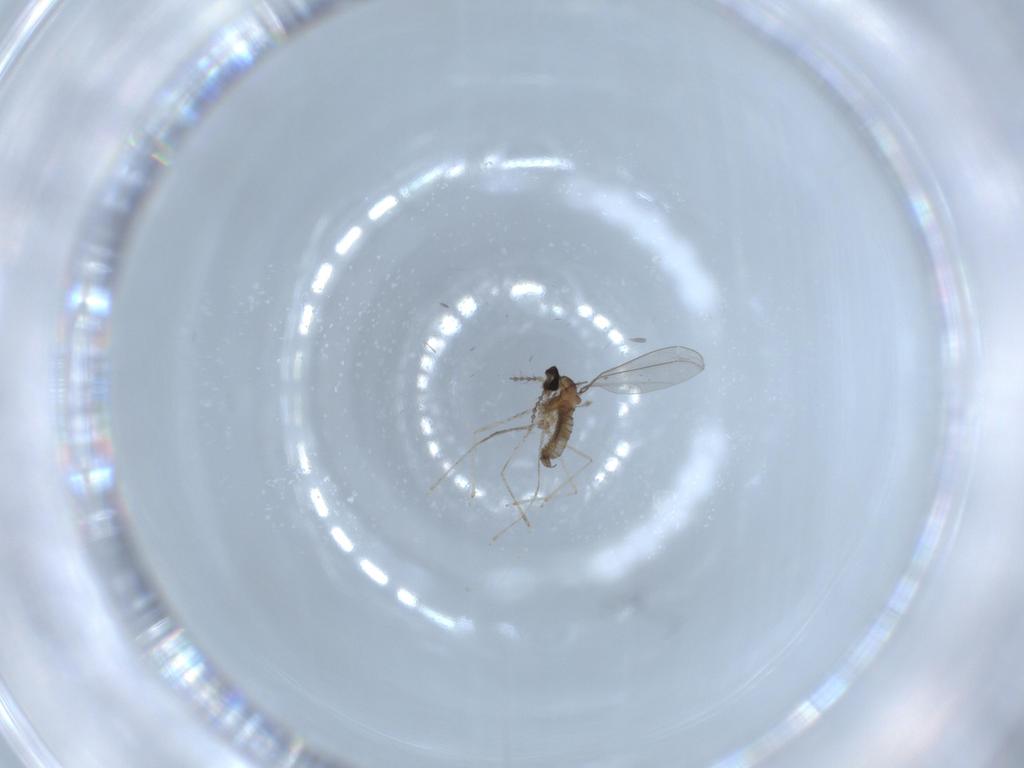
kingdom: Animalia
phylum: Arthropoda
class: Insecta
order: Diptera
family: Cecidomyiidae
